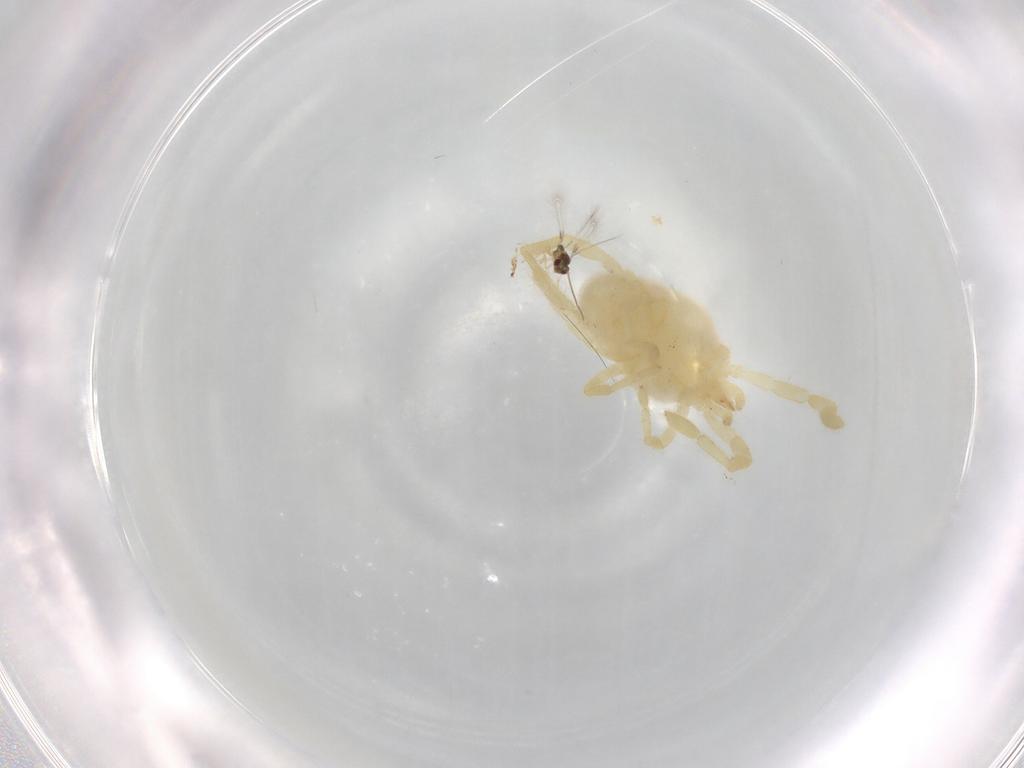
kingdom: Animalia
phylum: Arthropoda
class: Arachnida
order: Trombidiformes
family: Erythraeidae
